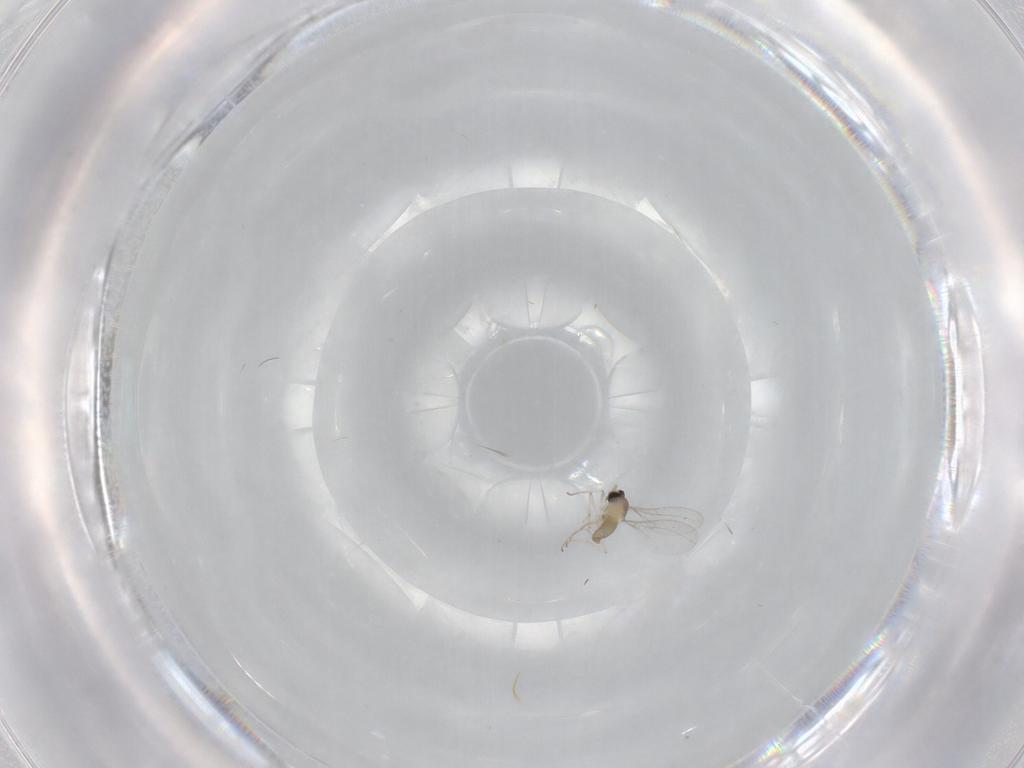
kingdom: Animalia
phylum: Arthropoda
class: Insecta
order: Diptera
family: Cecidomyiidae
